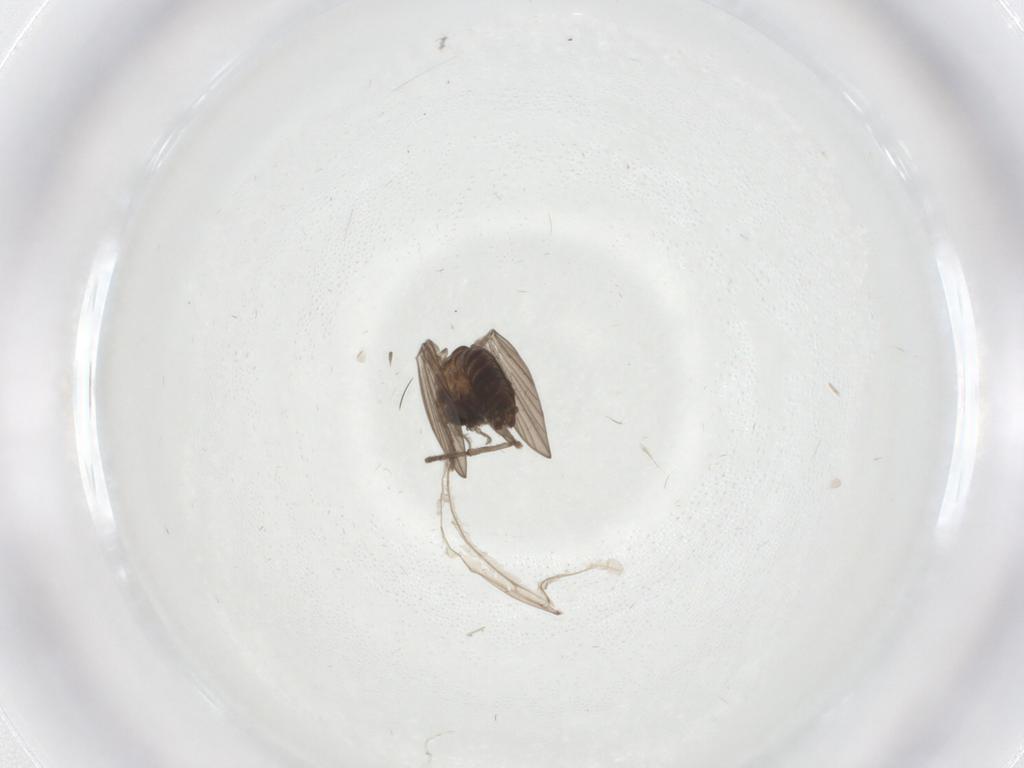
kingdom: Animalia
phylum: Arthropoda
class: Insecta
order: Diptera
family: Psychodidae
